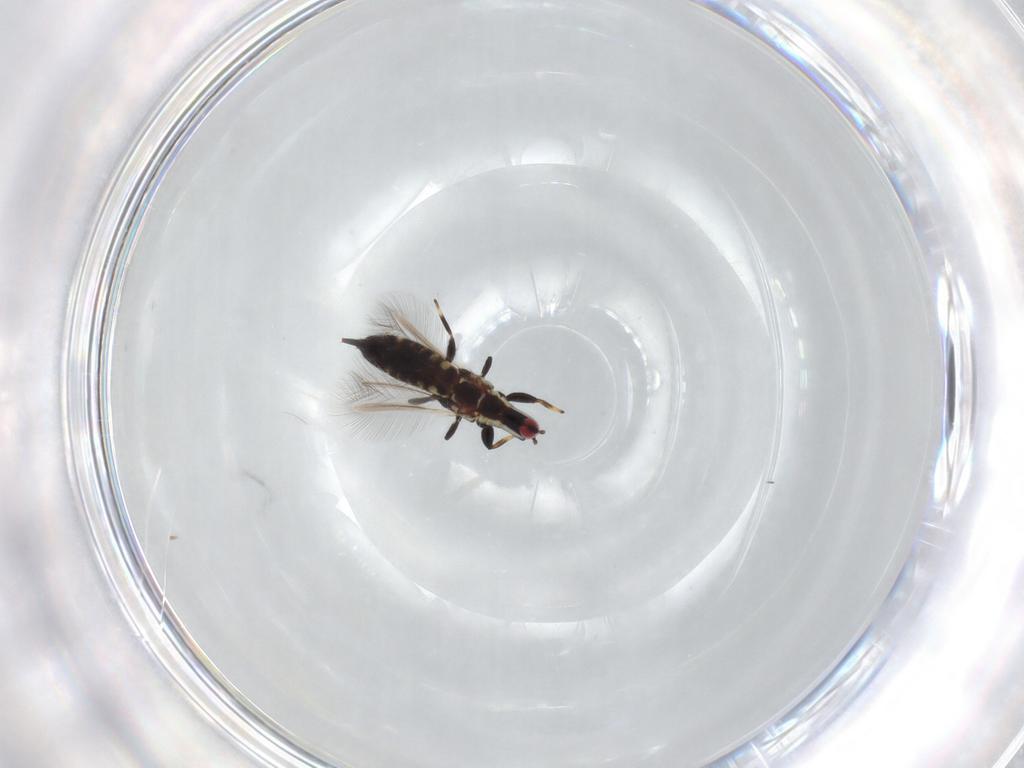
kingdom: Animalia
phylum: Arthropoda
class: Insecta
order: Thysanoptera
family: Phlaeothripidae
